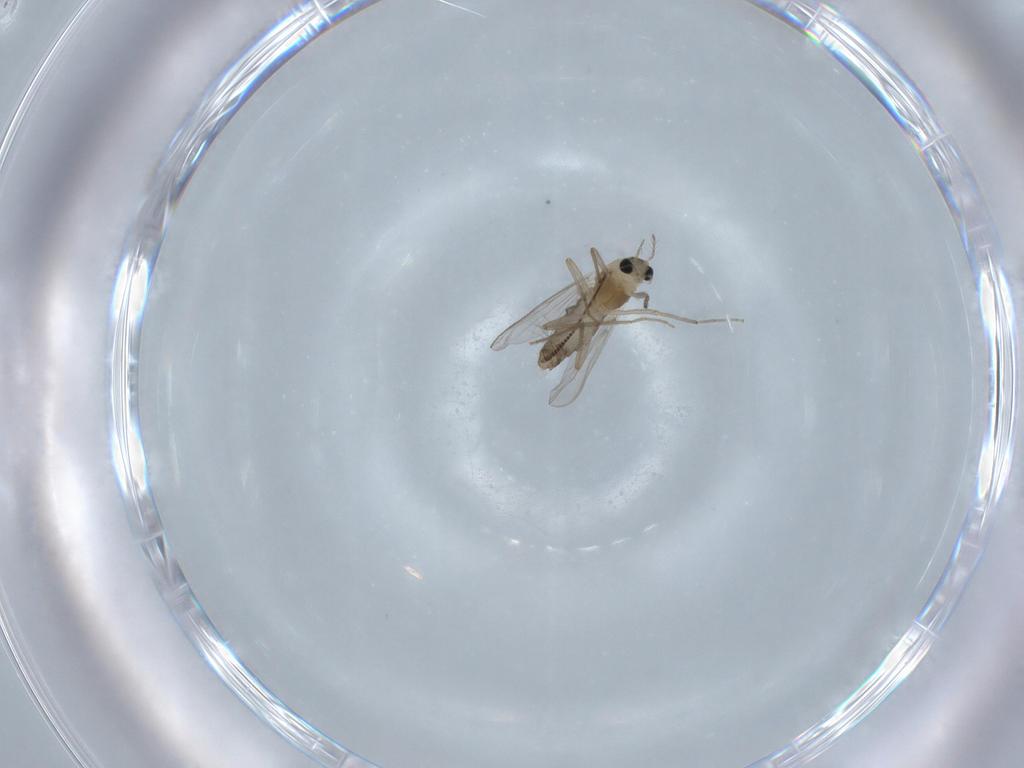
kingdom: Animalia
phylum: Arthropoda
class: Insecta
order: Diptera
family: Chironomidae
